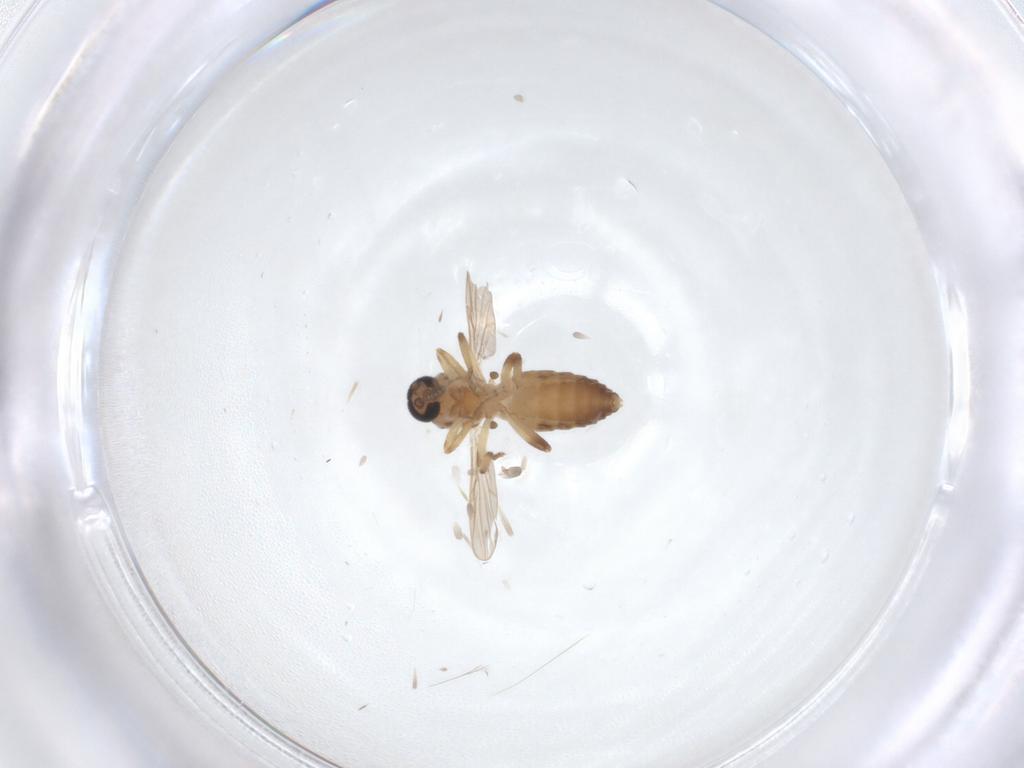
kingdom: Animalia
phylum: Arthropoda
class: Insecta
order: Diptera
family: Ceratopogonidae
